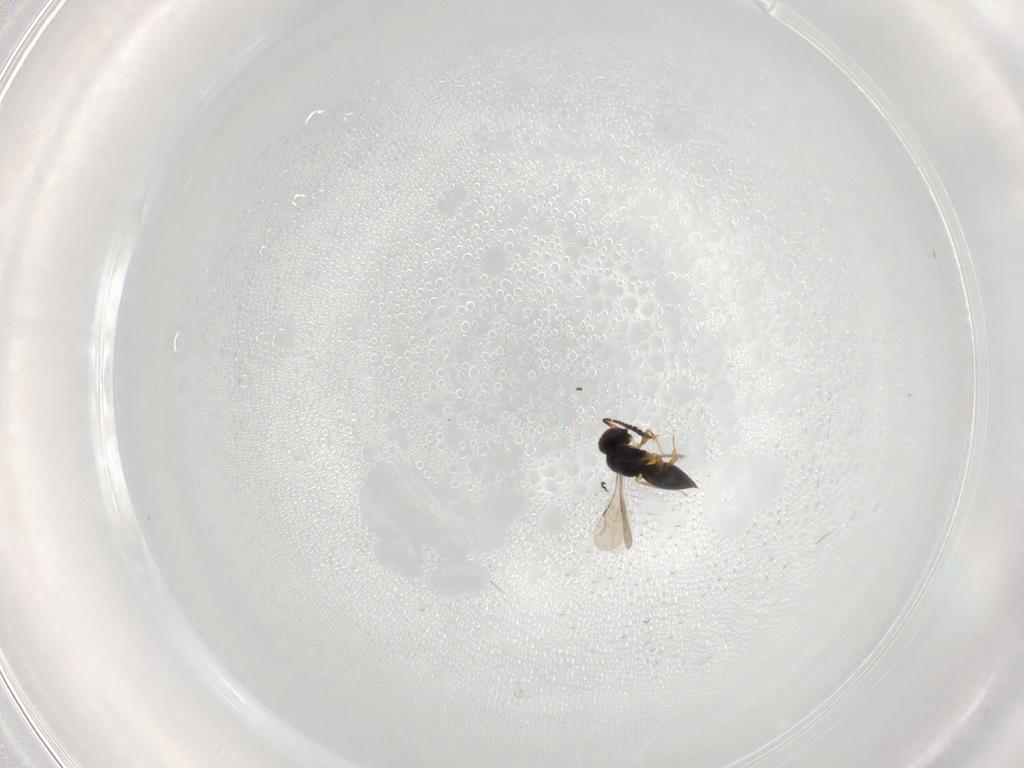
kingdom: Animalia
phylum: Arthropoda
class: Insecta
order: Hymenoptera
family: Ceraphronidae
